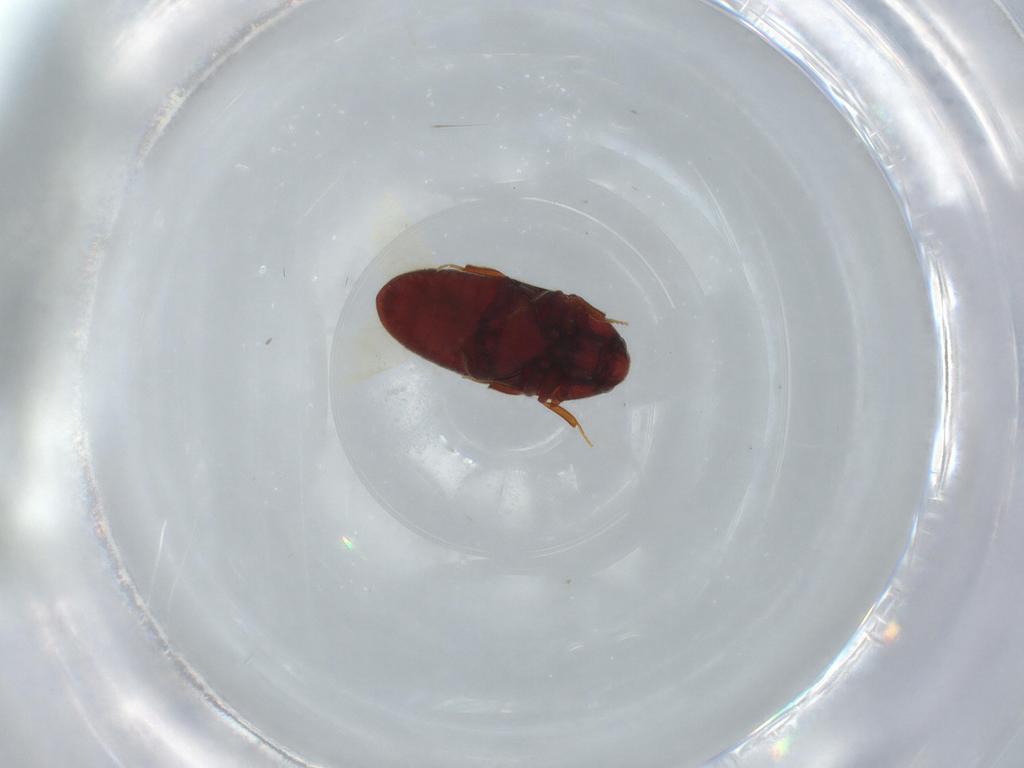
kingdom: Animalia
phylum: Arthropoda
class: Insecta
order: Coleoptera
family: Throscidae
